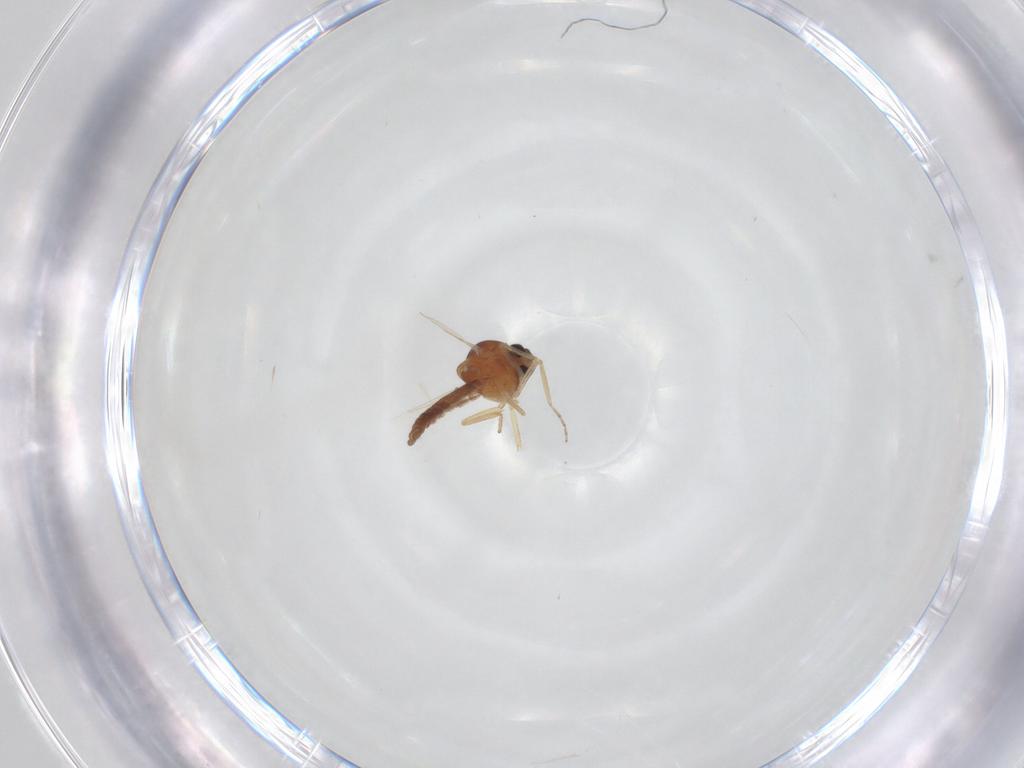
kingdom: Animalia
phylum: Arthropoda
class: Insecta
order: Diptera
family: Ceratopogonidae
